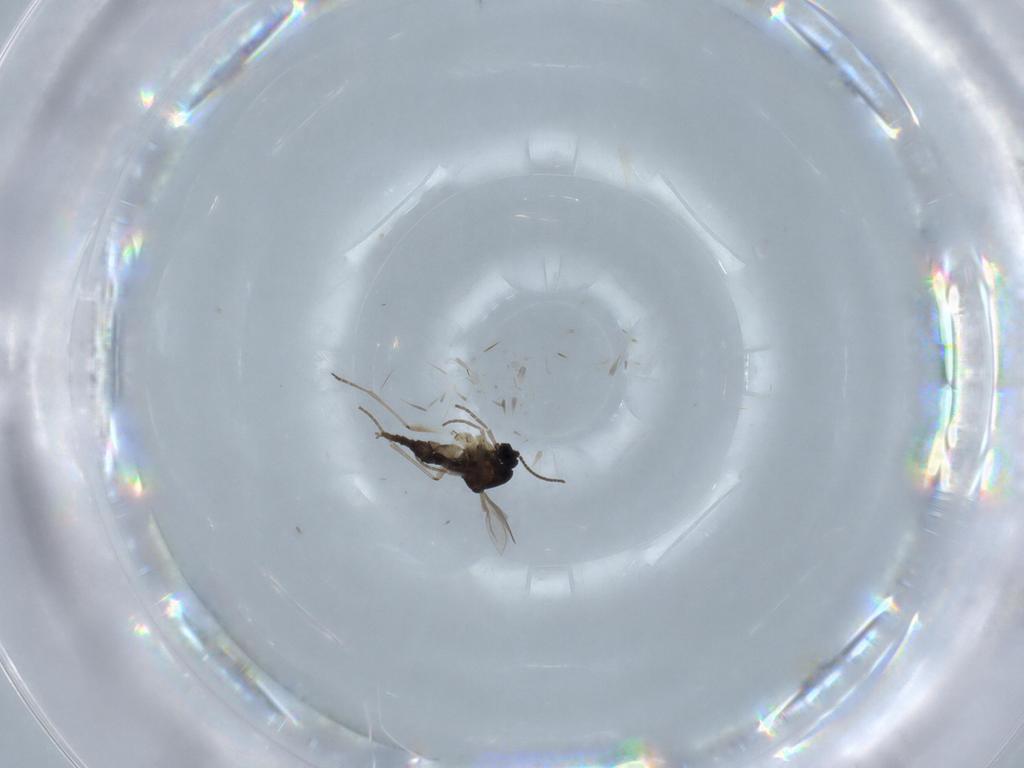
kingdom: Animalia
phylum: Arthropoda
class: Insecta
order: Diptera
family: Sciaridae
